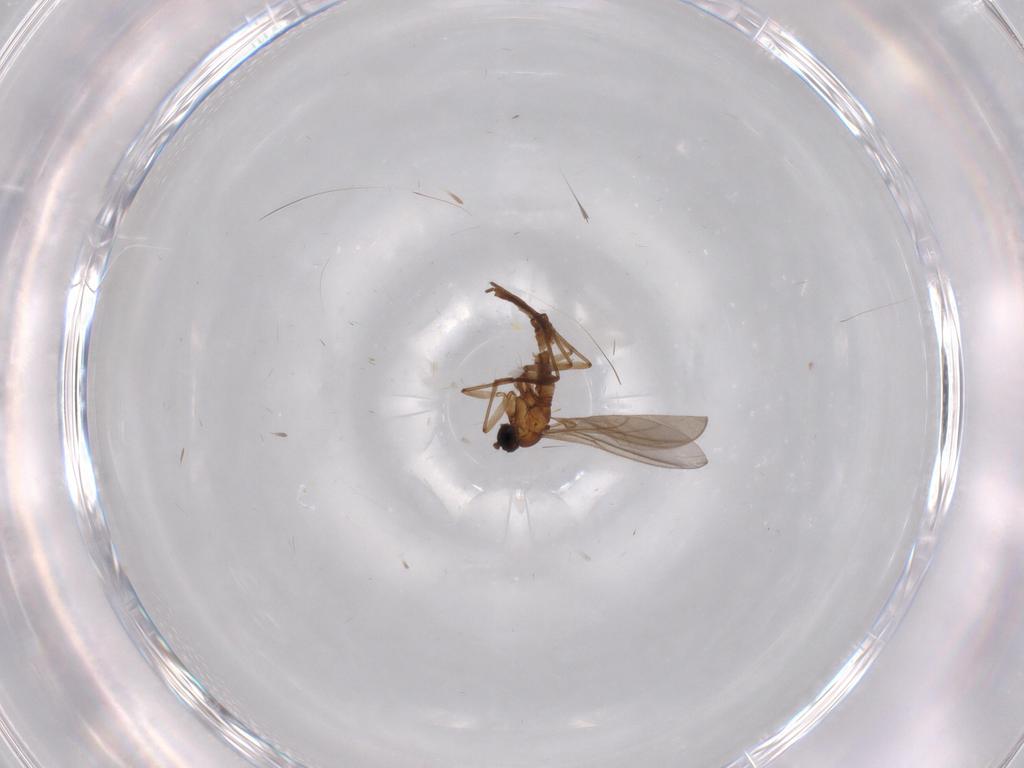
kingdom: Animalia
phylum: Arthropoda
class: Insecta
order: Diptera
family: Limoniidae
